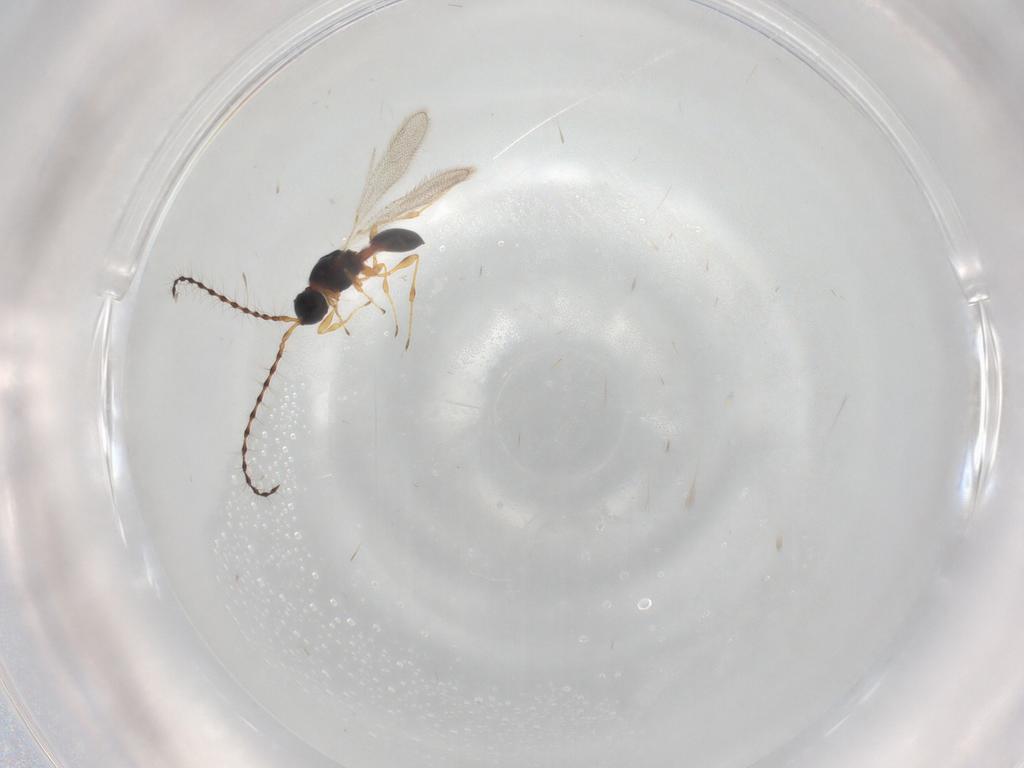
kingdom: Animalia
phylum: Arthropoda
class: Insecta
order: Hymenoptera
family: Diapriidae
